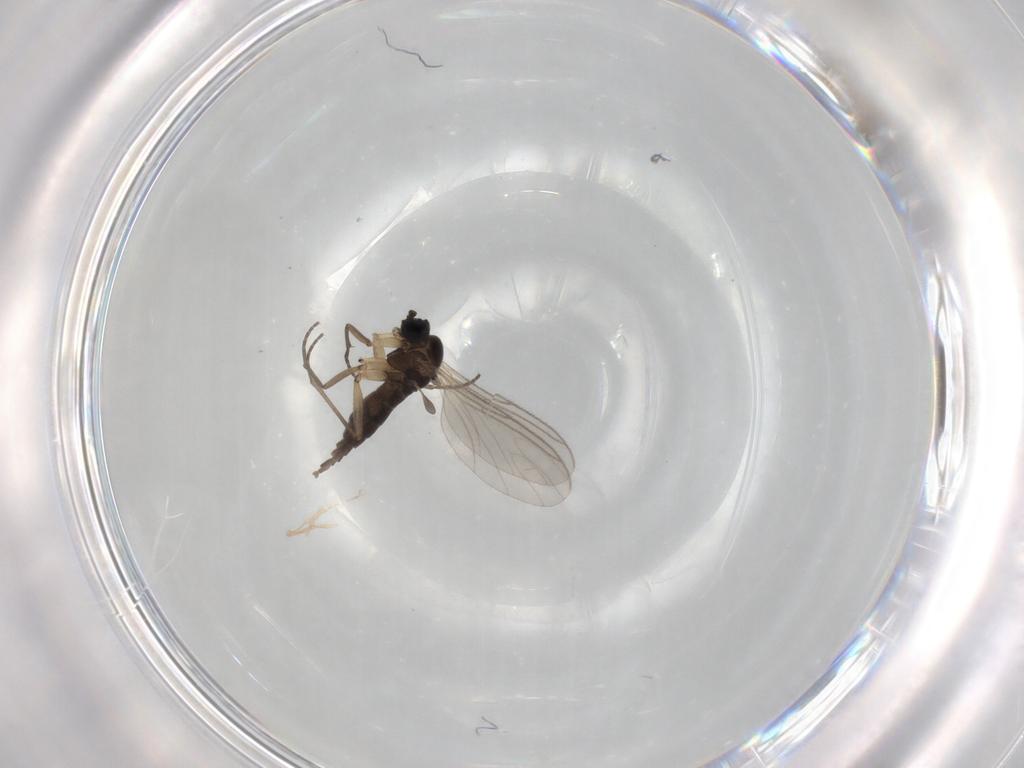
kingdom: Animalia
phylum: Arthropoda
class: Insecta
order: Diptera
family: Sciaridae
